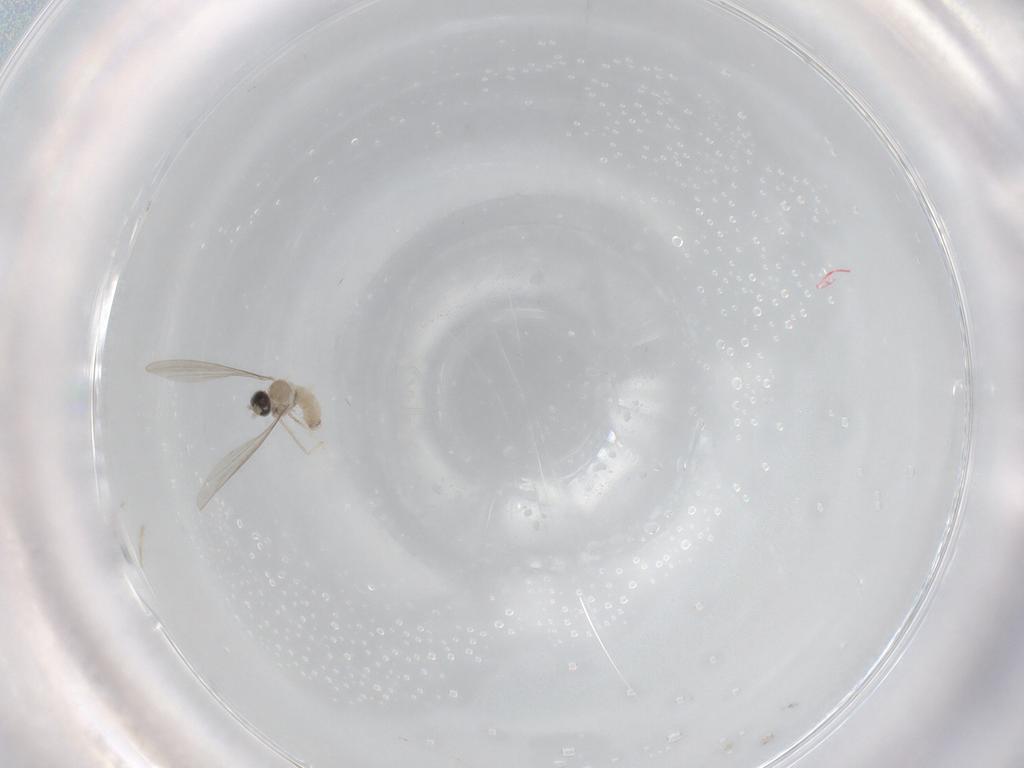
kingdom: Animalia
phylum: Arthropoda
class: Insecta
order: Diptera
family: Cecidomyiidae
